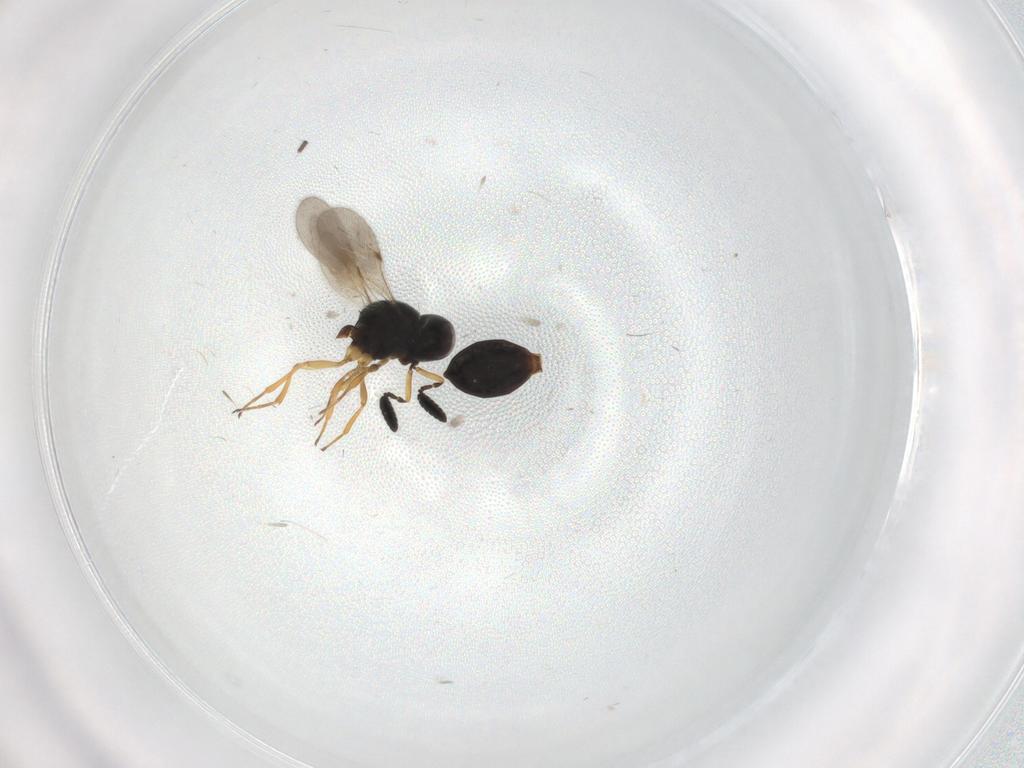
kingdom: Animalia
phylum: Arthropoda
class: Insecta
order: Hymenoptera
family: Scelionidae
